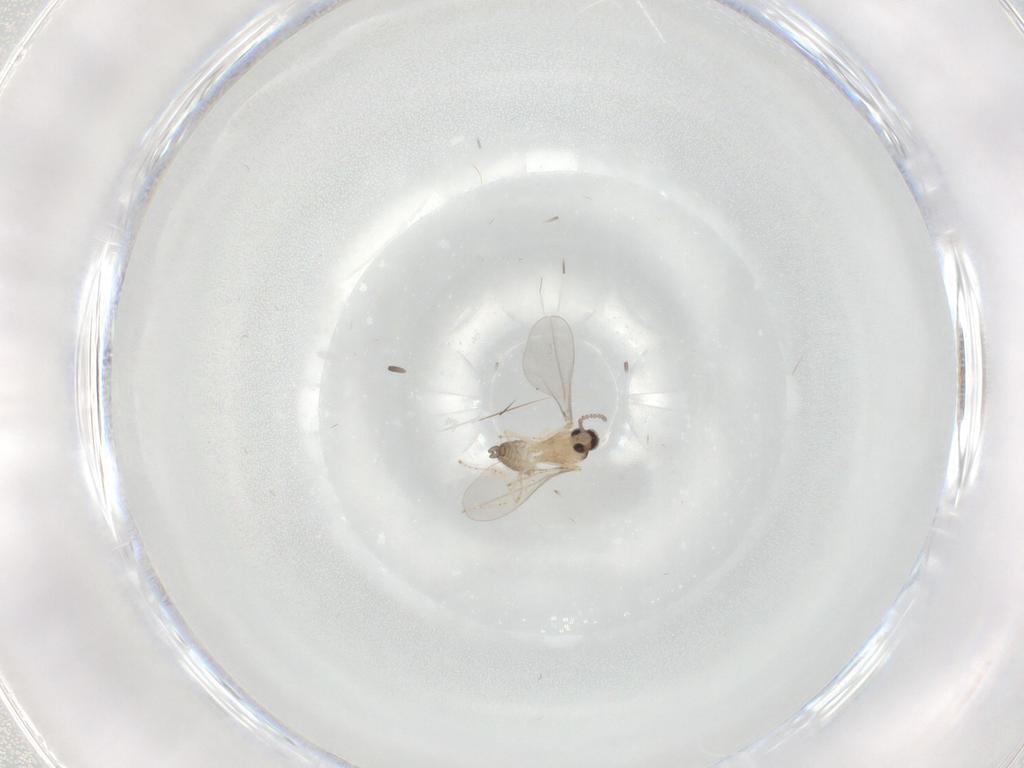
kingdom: Animalia
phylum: Arthropoda
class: Insecta
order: Diptera
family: Cecidomyiidae
